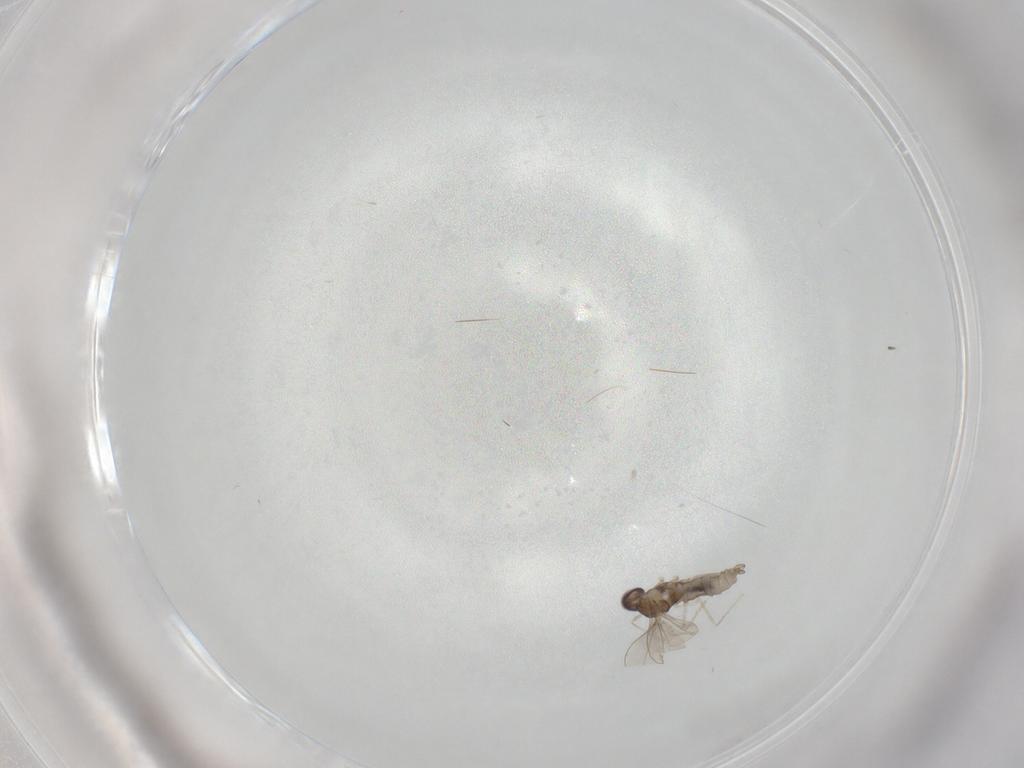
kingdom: Animalia
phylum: Arthropoda
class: Insecta
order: Diptera
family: Cecidomyiidae
